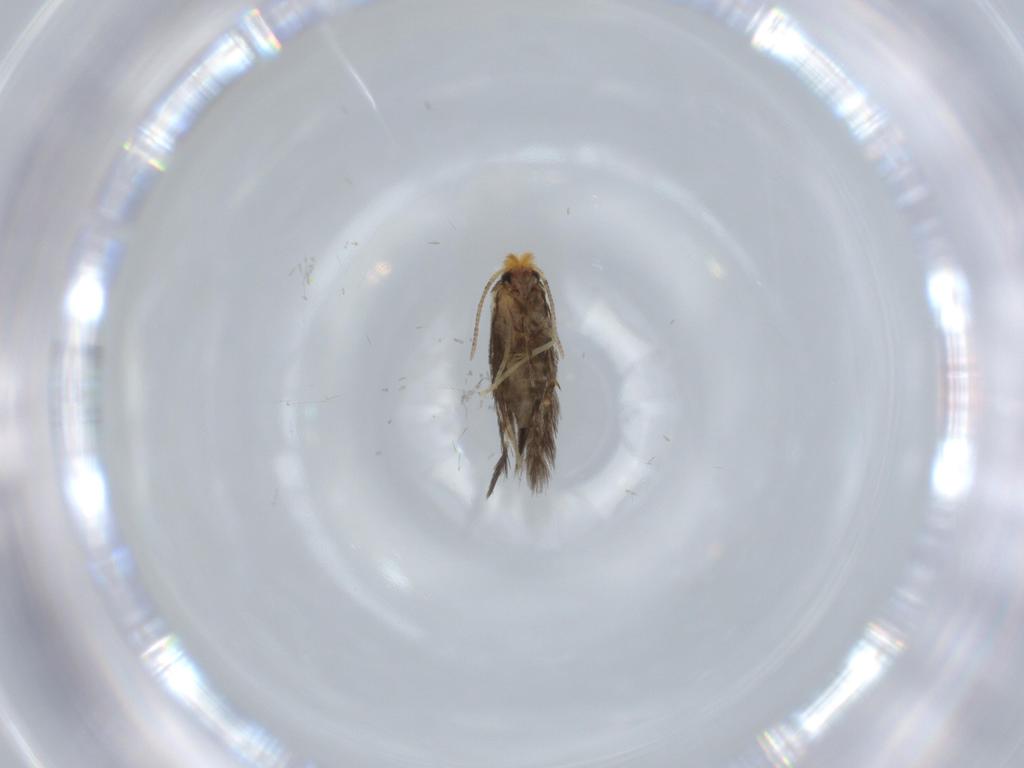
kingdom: Animalia
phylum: Arthropoda
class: Insecta
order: Lepidoptera
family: Nepticulidae
